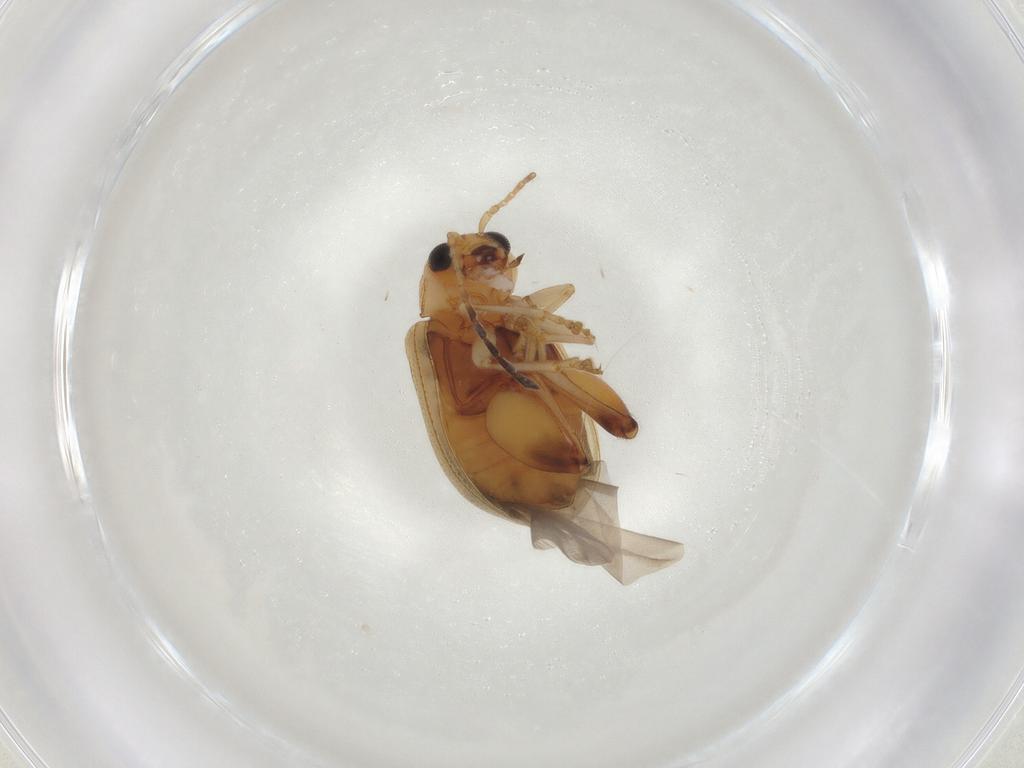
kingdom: Animalia
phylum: Arthropoda
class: Insecta
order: Coleoptera
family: Chrysomelidae
